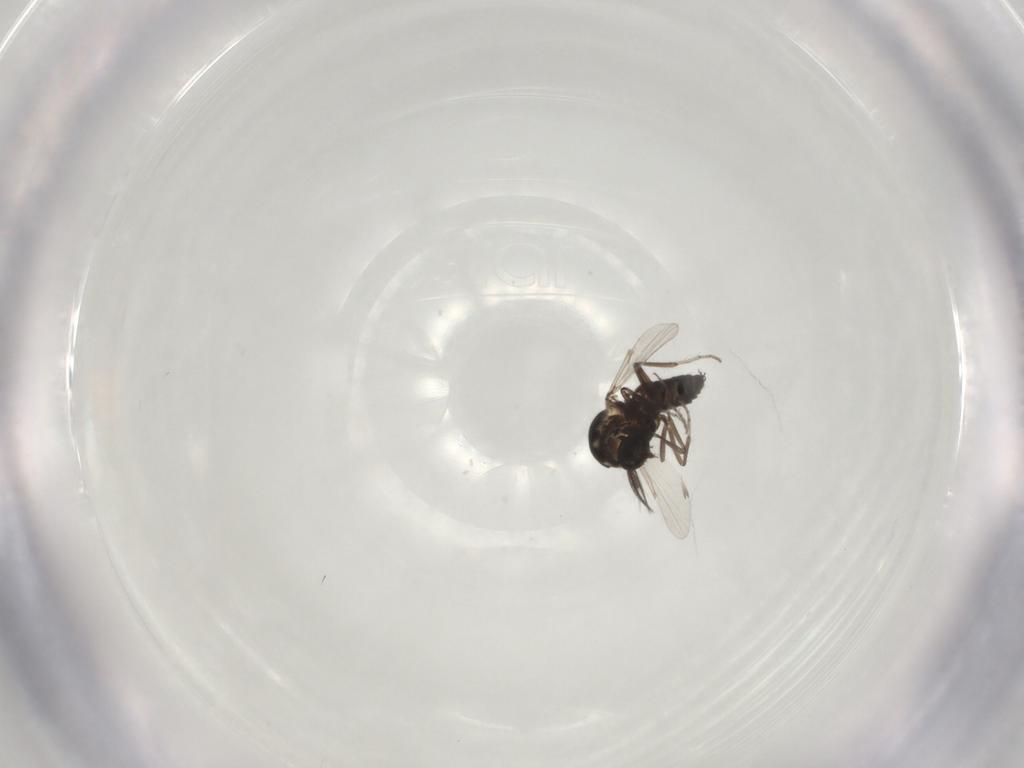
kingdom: Animalia
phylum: Arthropoda
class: Insecta
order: Diptera
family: Ceratopogonidae
